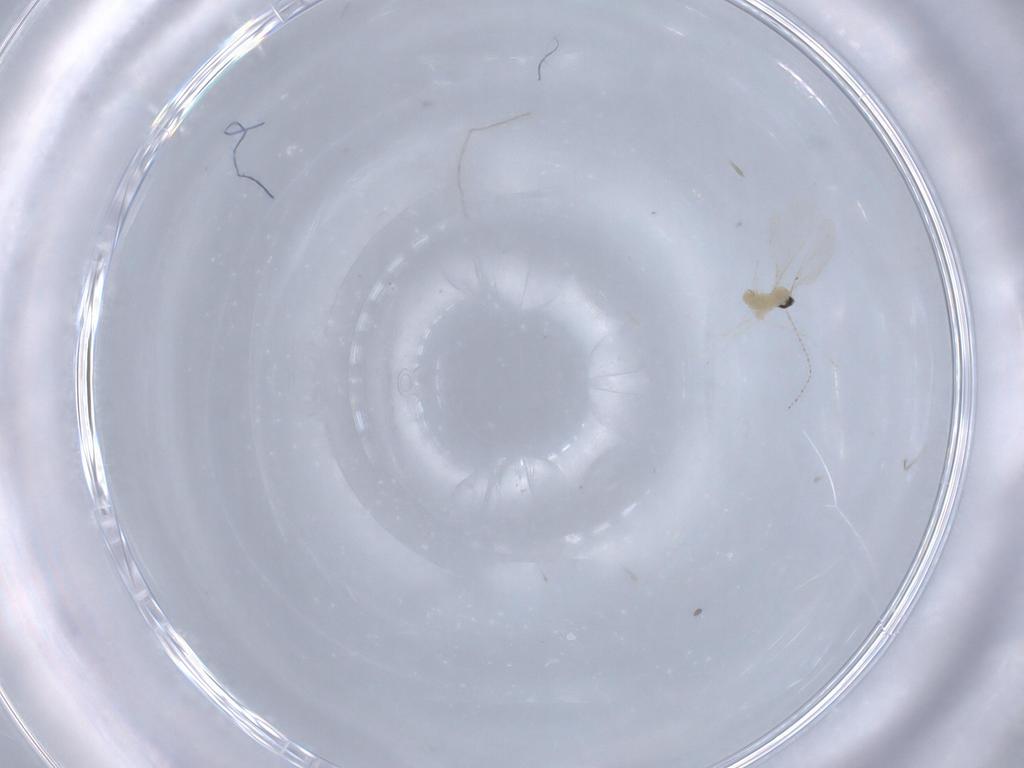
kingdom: Animalia
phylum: Arthropoda
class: Insecta
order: Diptera
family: Cecidomyiidae
